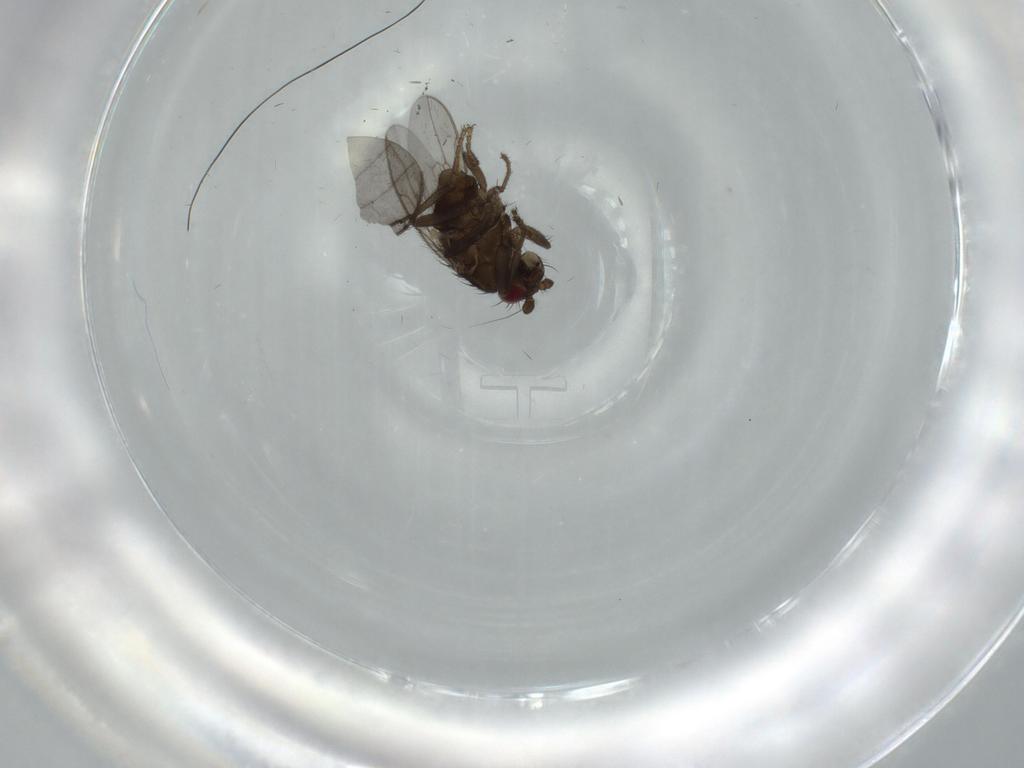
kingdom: Animalia
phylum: Arthropoda
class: Insecta
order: Diptera
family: Sphaeroceridae
